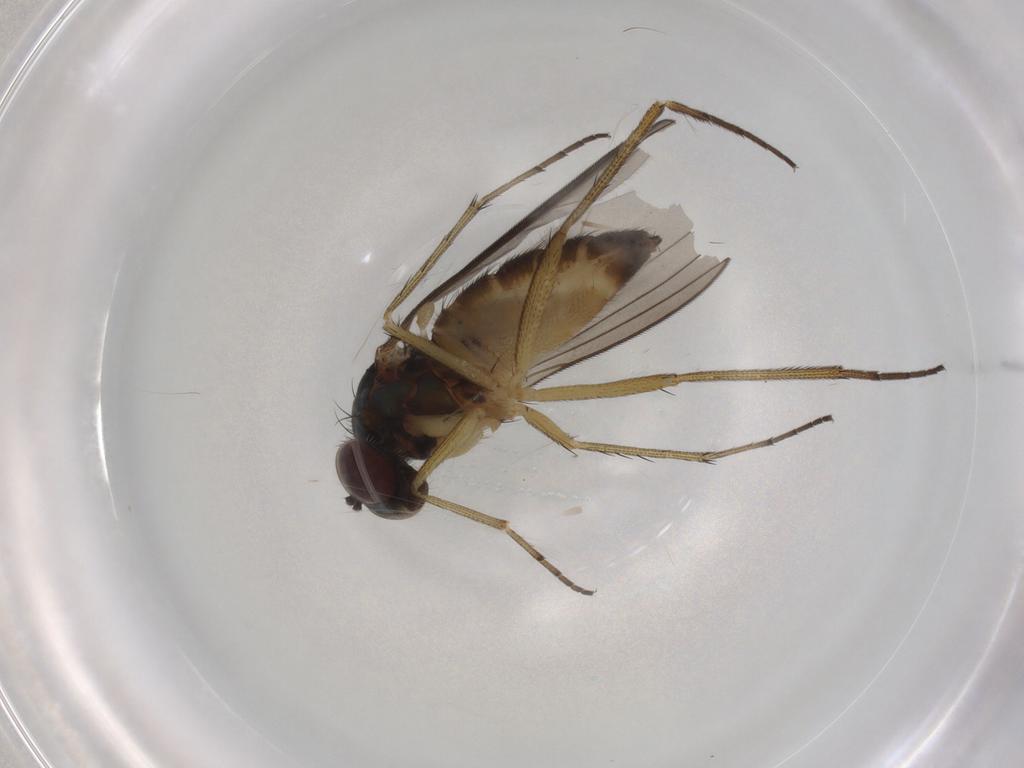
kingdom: Animalia
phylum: Arthropoda
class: Insecta
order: Diptera
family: Dolichopodidae
